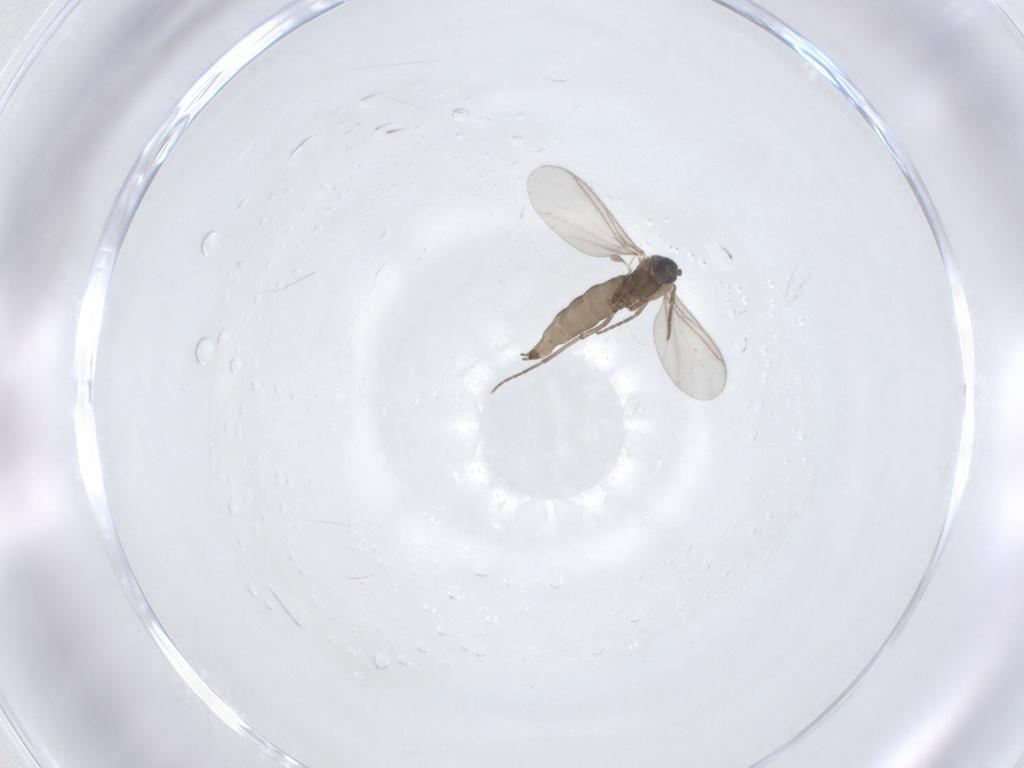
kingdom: Animalia
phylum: Arthropoda
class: Insecta
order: Diptera
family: Sciaridae
